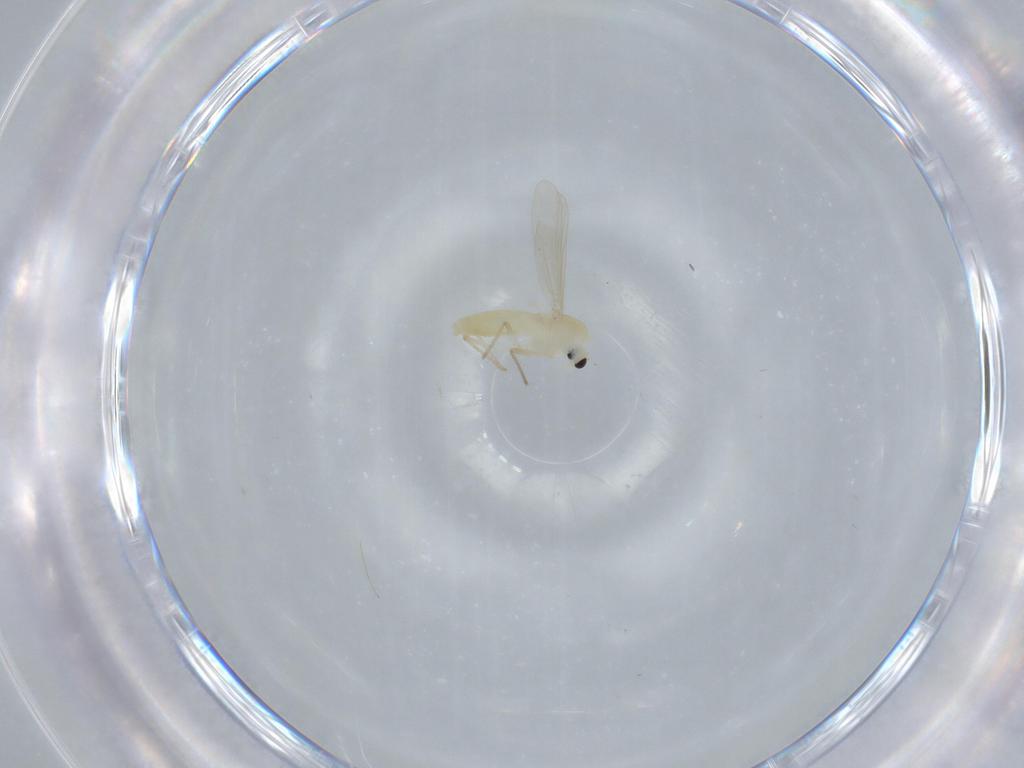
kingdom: Animalia
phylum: Arthropoda
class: Insecta
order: Diptera
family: Chironomidae
